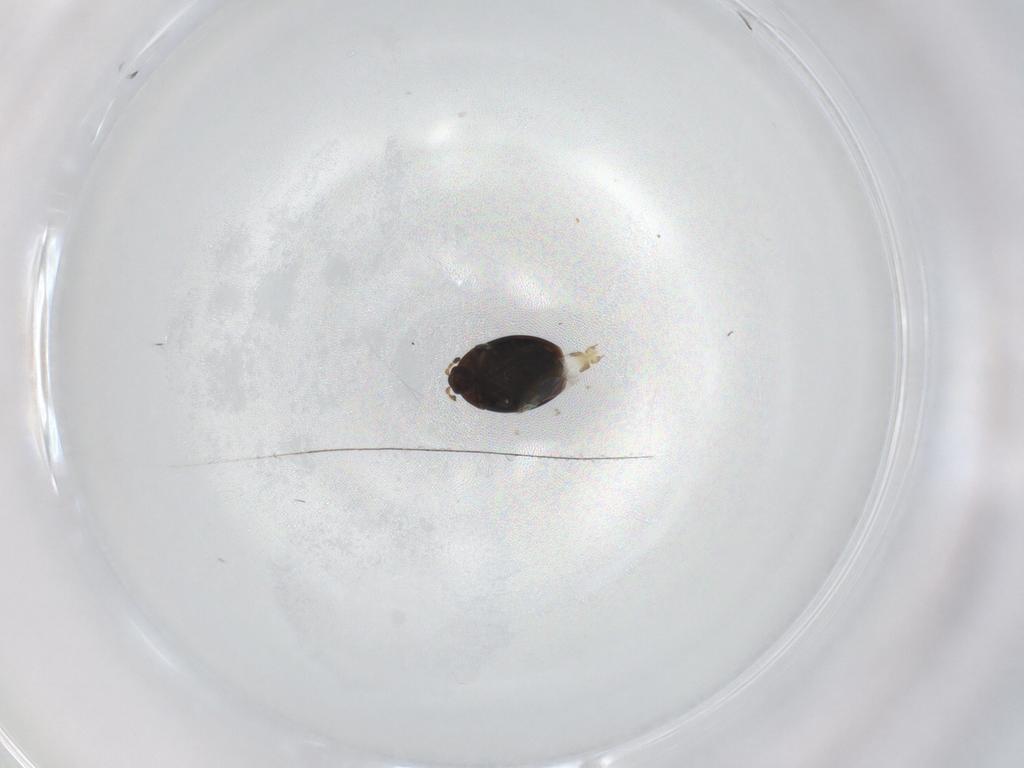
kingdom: Animalia
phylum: Arthropoda
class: Insecta
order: Coleoptera
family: Corylophidae
